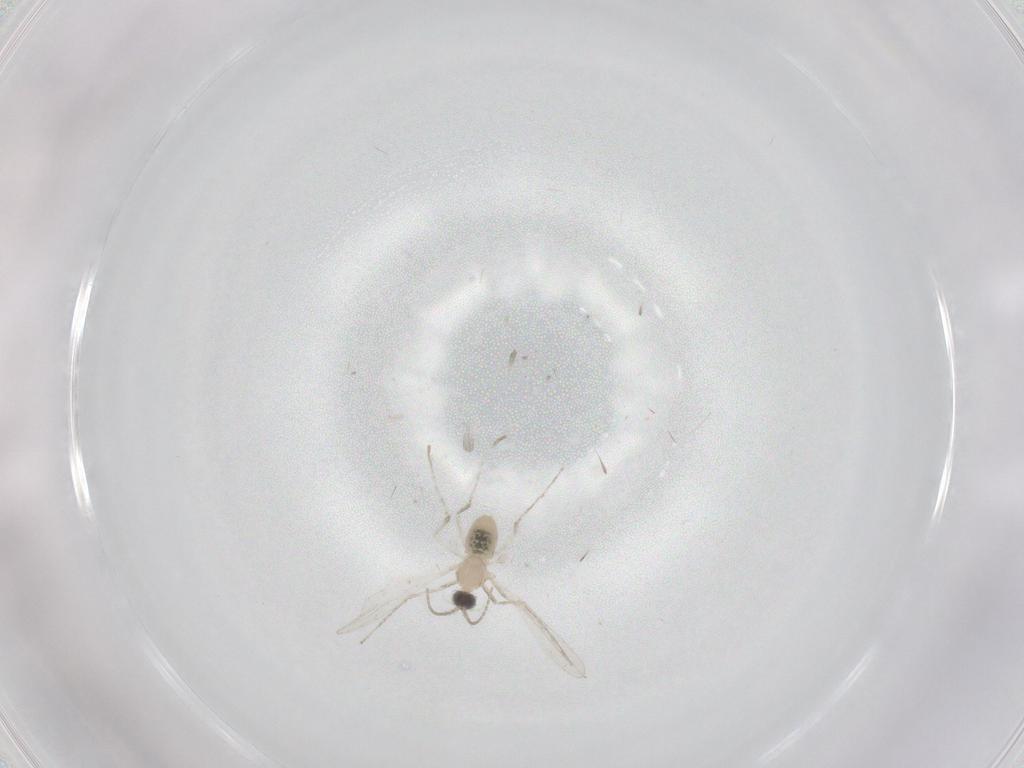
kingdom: Animalia
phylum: Arthropoda
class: Insecta
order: Diptera
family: Cecidomyiidae
